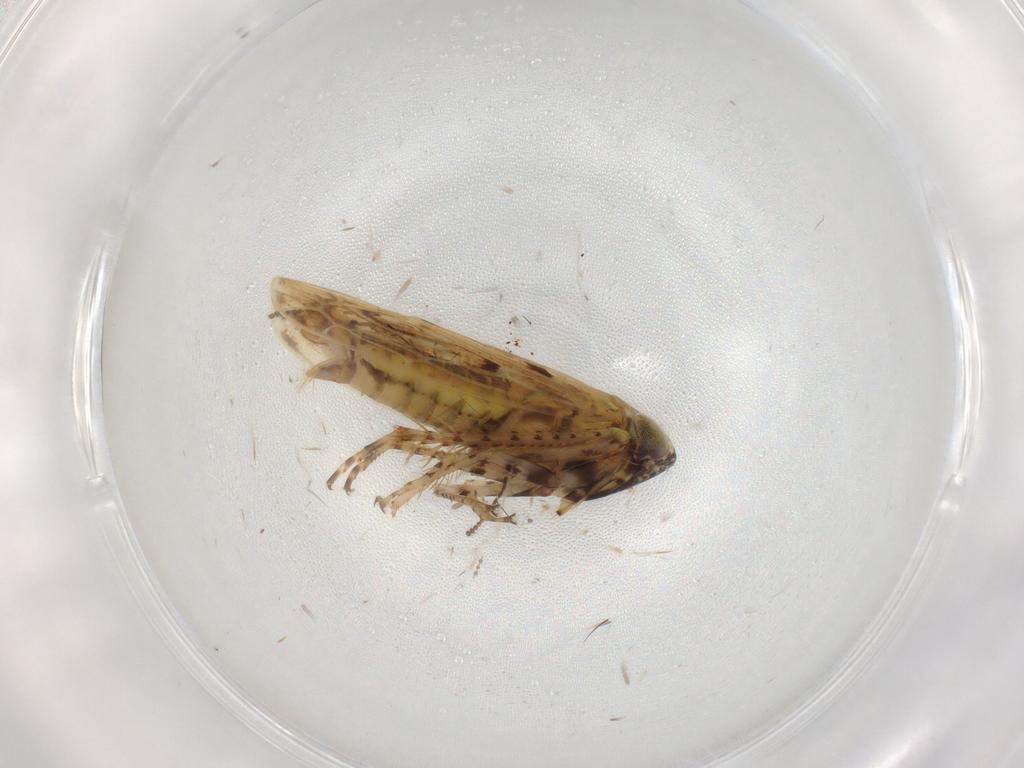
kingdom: Animalia
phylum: Arthropoda
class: Insecta
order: Hemiptera
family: Cicadellidae
